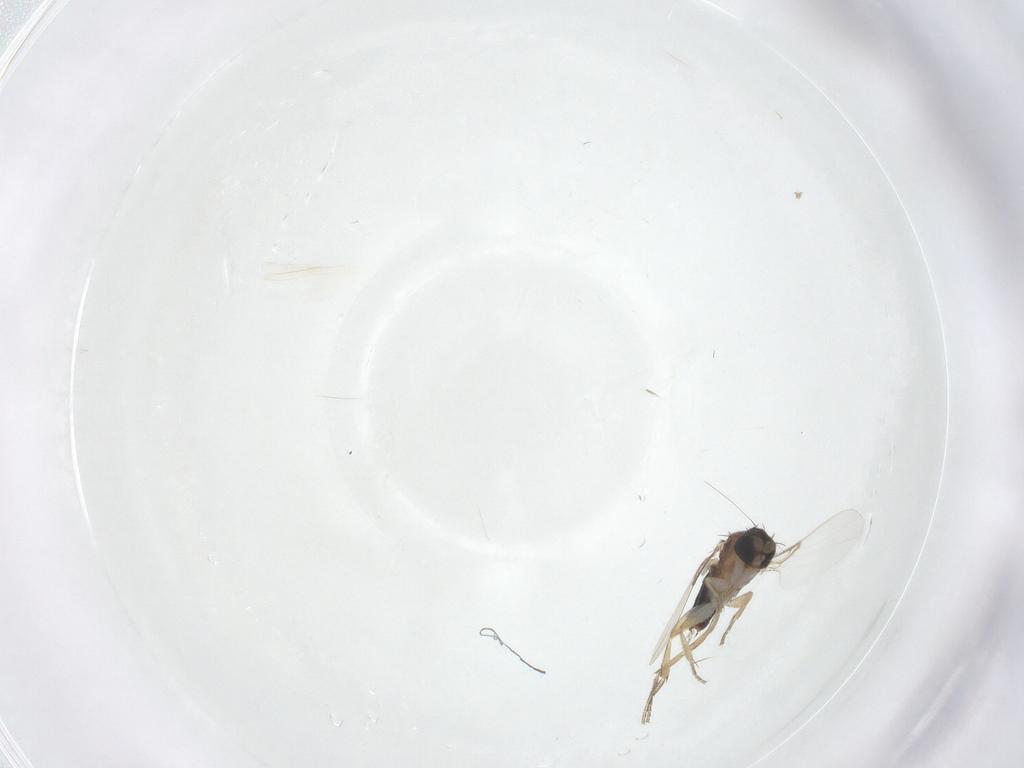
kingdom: Animalia
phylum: Arthropoda
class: Insecta
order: Diptera
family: Phoridae
